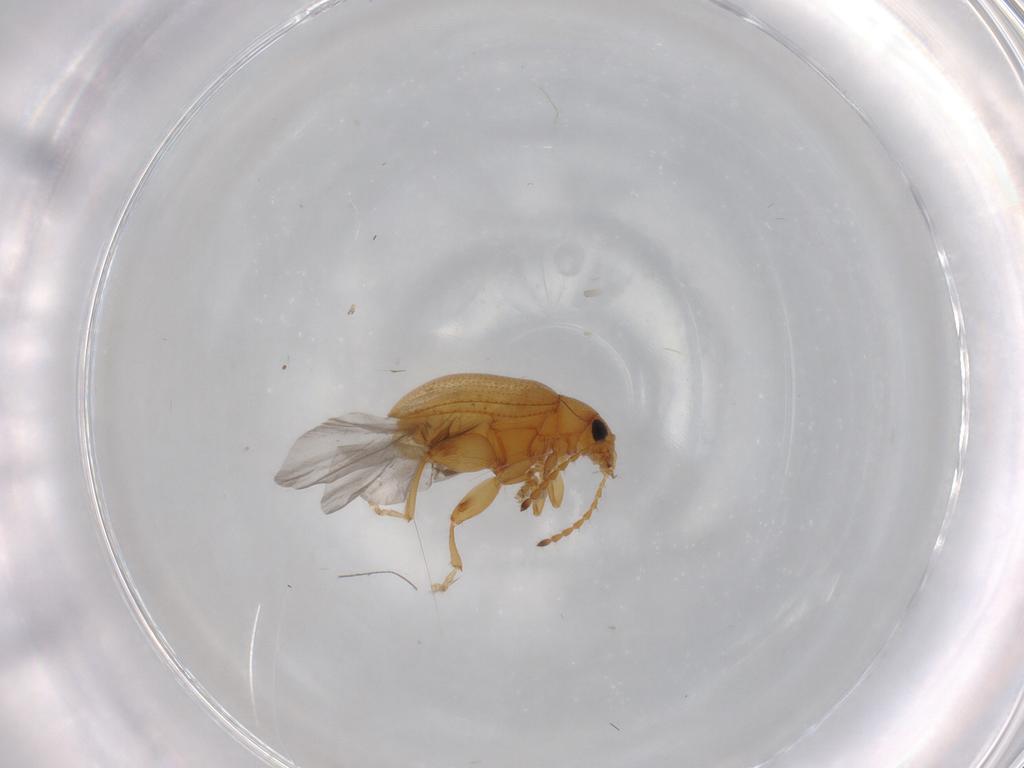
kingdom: Animalia
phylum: Arthropoda
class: Insecta
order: Coleoptera
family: Chrysomelidae
